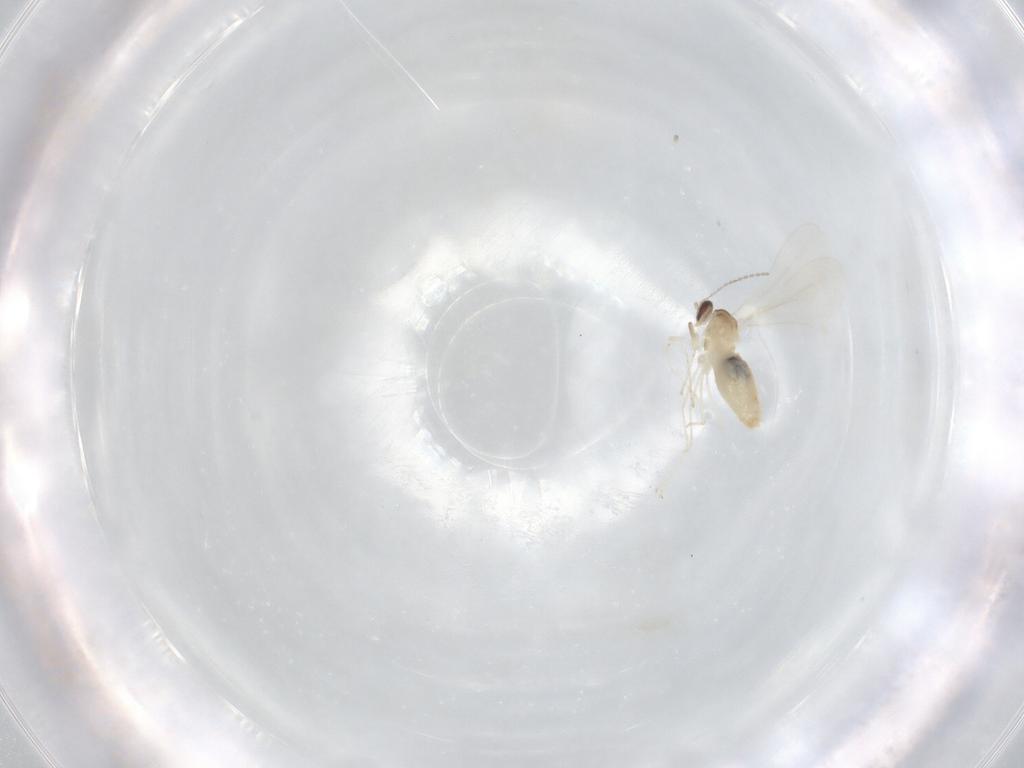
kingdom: Animalia
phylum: Arthropoda
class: Insecta
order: Diptera
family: Cecidomyiidae
